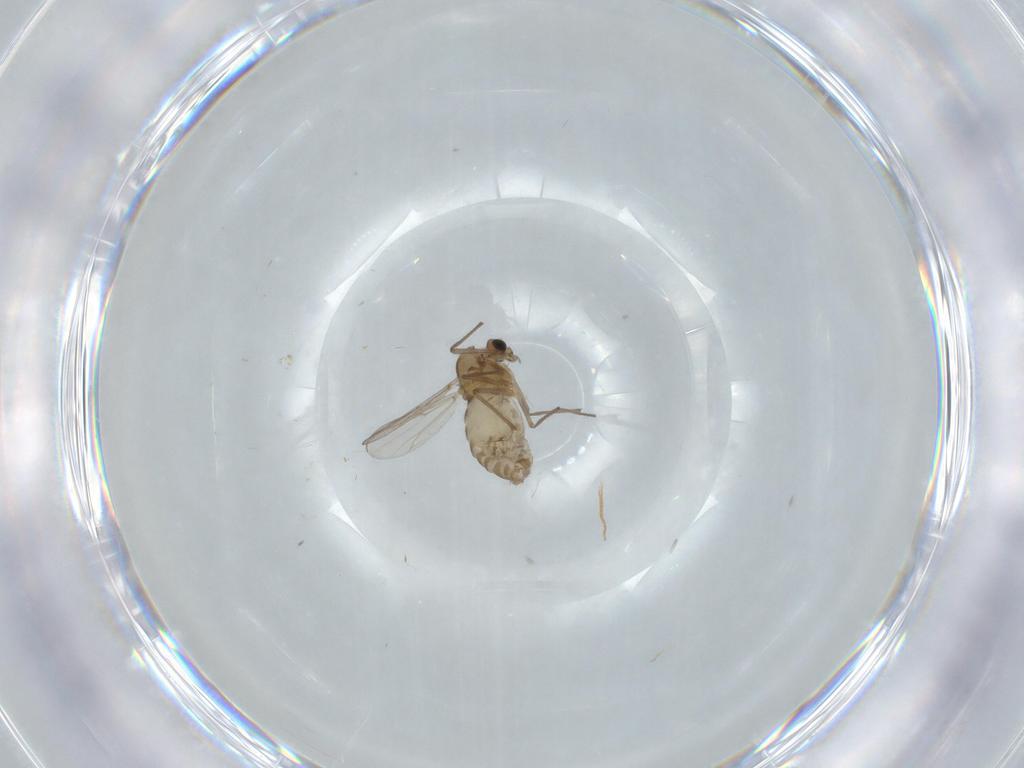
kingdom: Animalia
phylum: Arthropoda
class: Insecta
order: Diptera
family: Chironomidae
